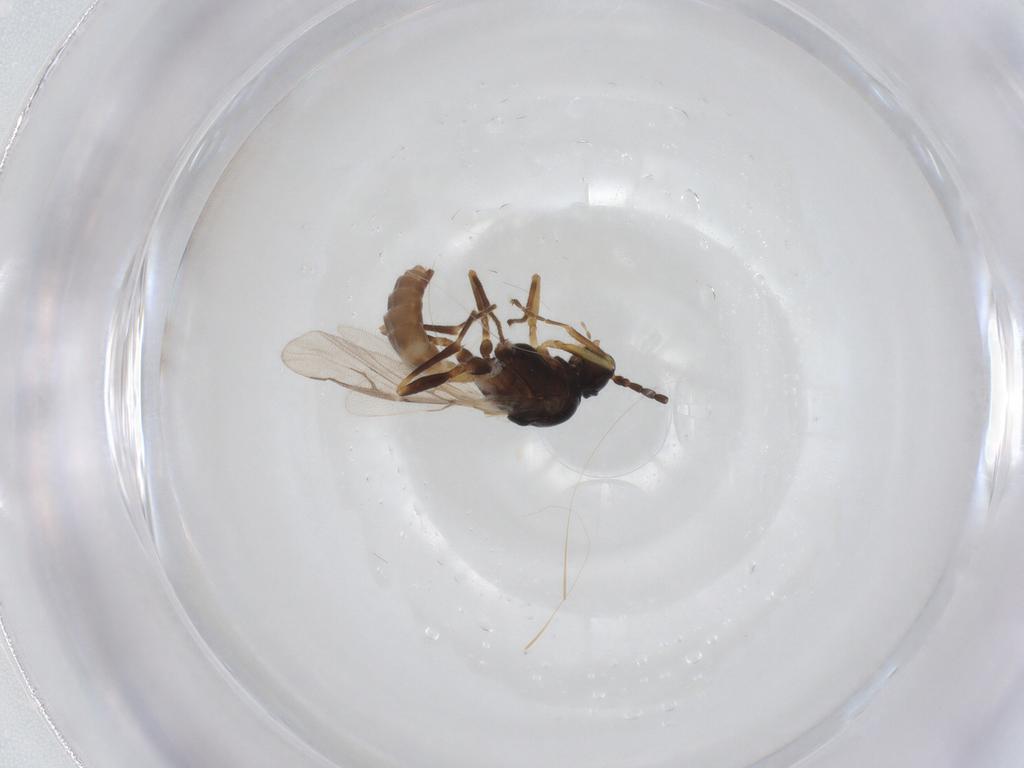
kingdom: Animalia
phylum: Arthropoda
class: Insecta
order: Hymenoptera
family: Braconidae
